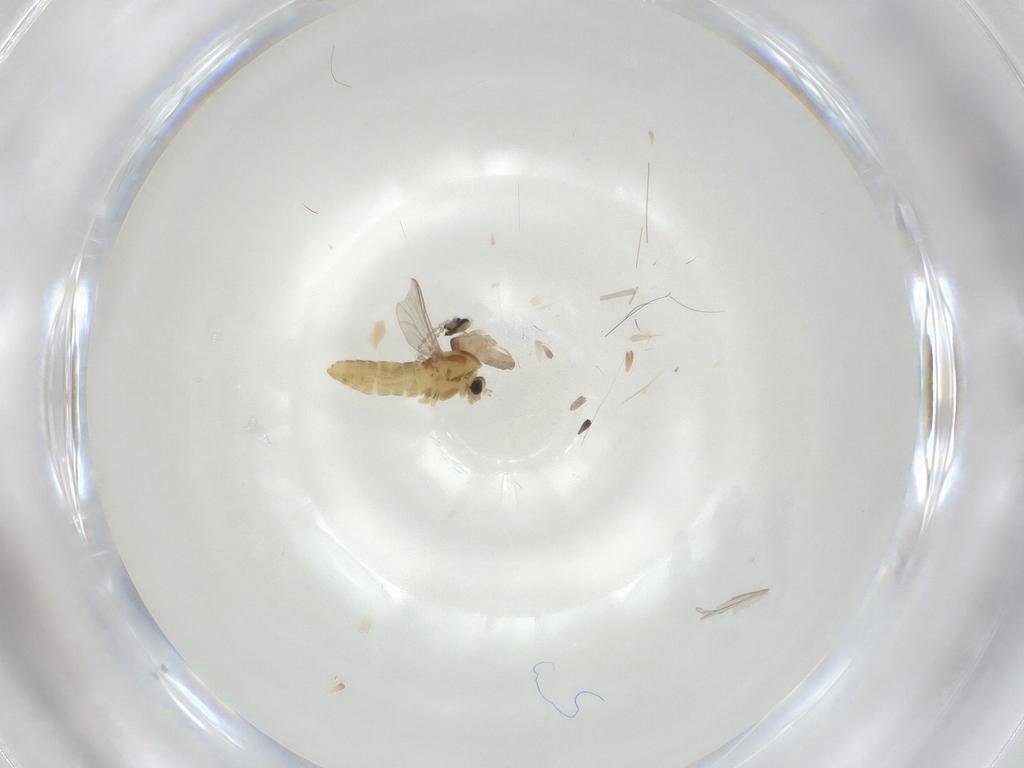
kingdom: Animalia
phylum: Arthropoda
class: Insecta
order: Diptera
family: Cecidomyiidae
